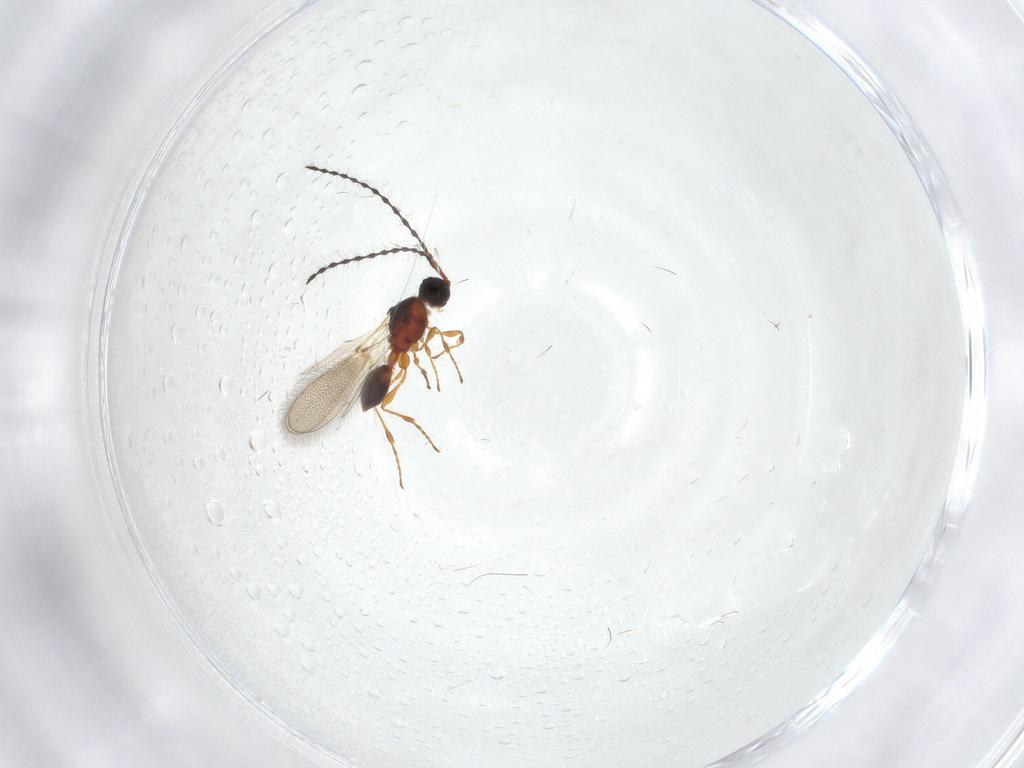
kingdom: Animalia
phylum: Arthropoda
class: Insecta
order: Hymenoptera
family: Diapriidae
